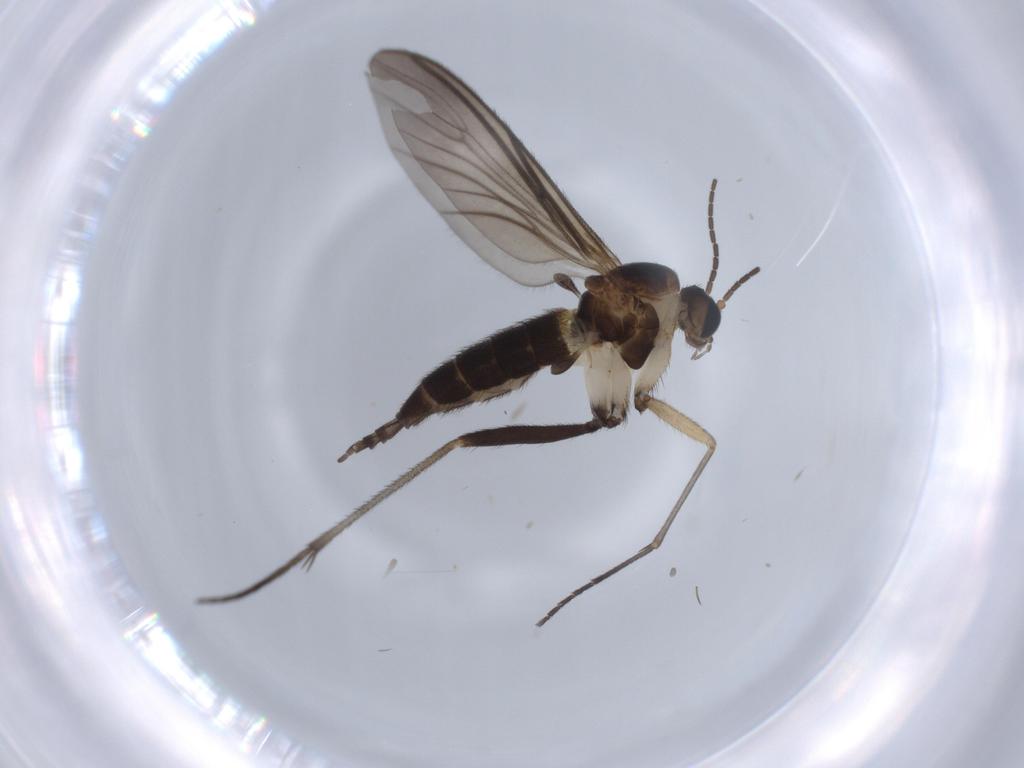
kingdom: Animalia
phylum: Arthropoda
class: Insecta
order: Diptera
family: Sciaridae
